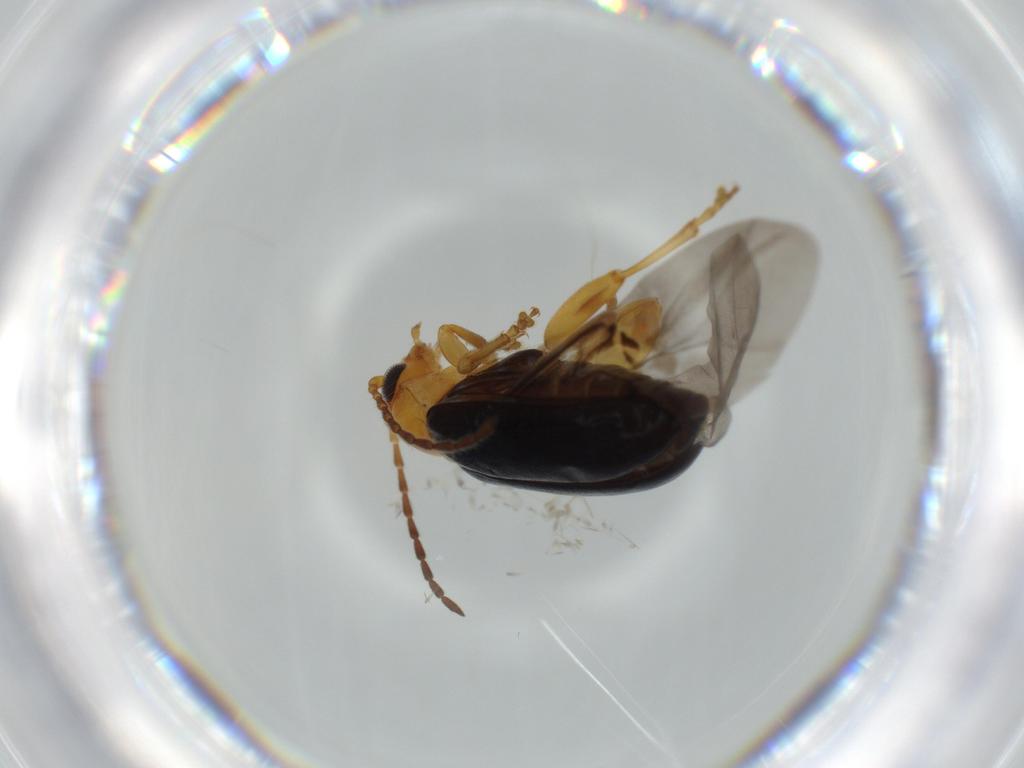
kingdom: Animalia
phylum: Arthropoda
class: Insecta
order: Coleoptera
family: Chrysomelidae
